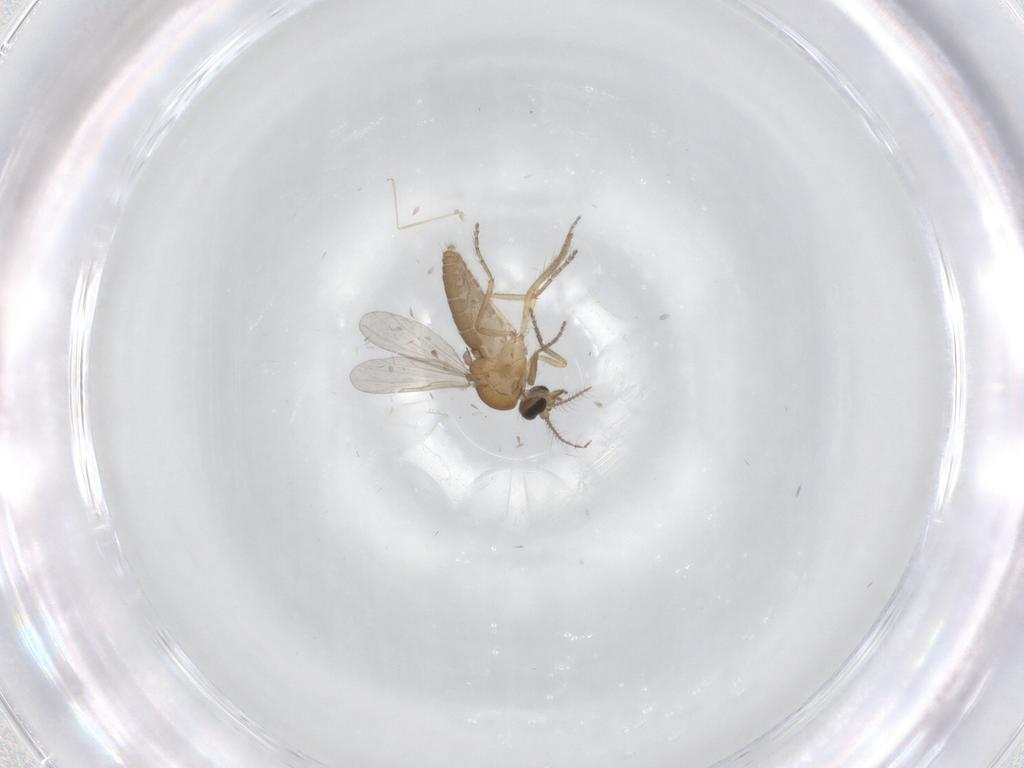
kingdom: Animalia
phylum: Arthropoda
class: Insecta
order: Diptera
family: Ceratopogonidae
